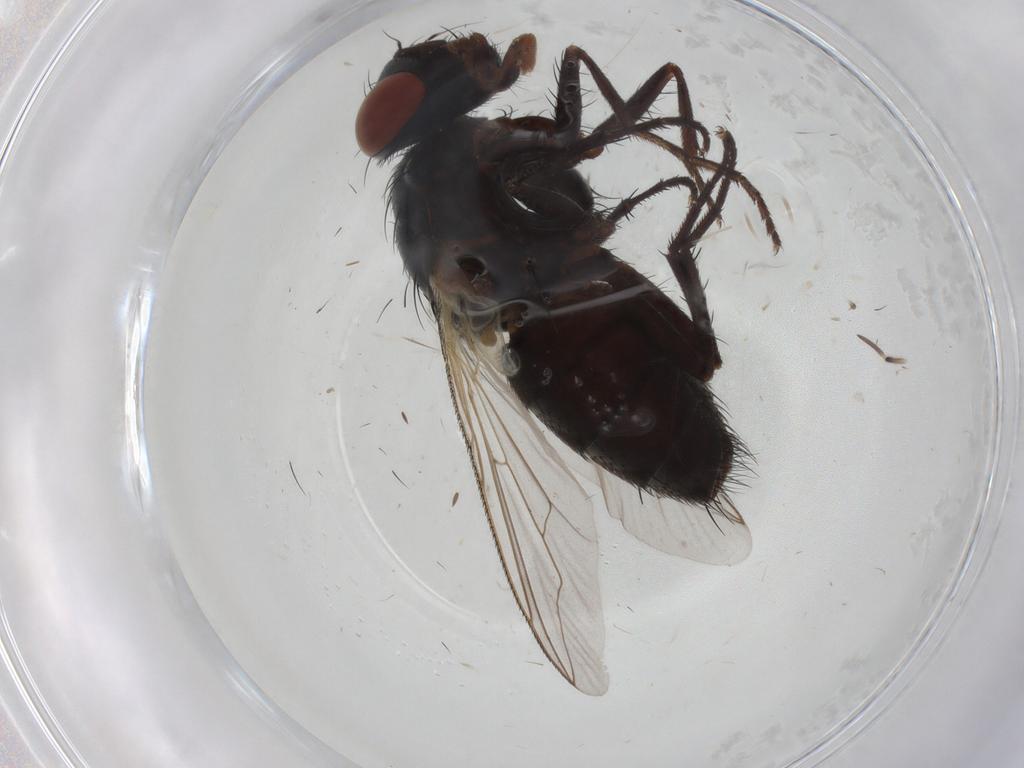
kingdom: Animalia
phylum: Arthropoda
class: Insecta
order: Diptera
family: Sarcophagidae
